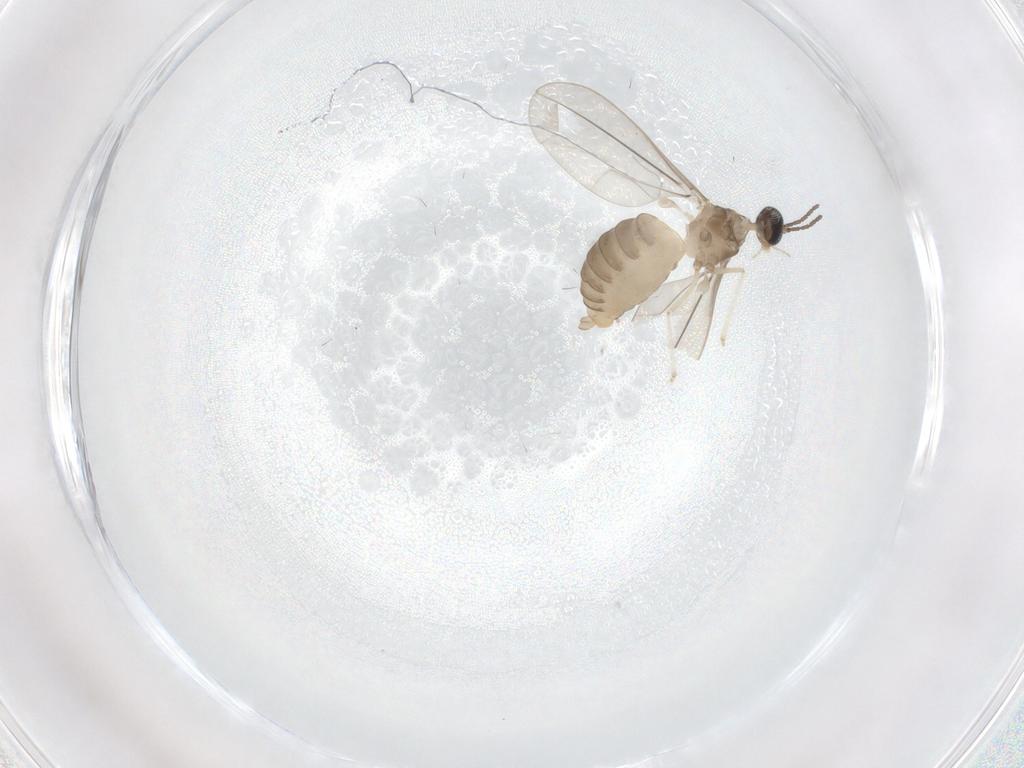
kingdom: Animalia
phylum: Arthropoda
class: Insecta
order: Diptera
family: Cecidomyiidae
